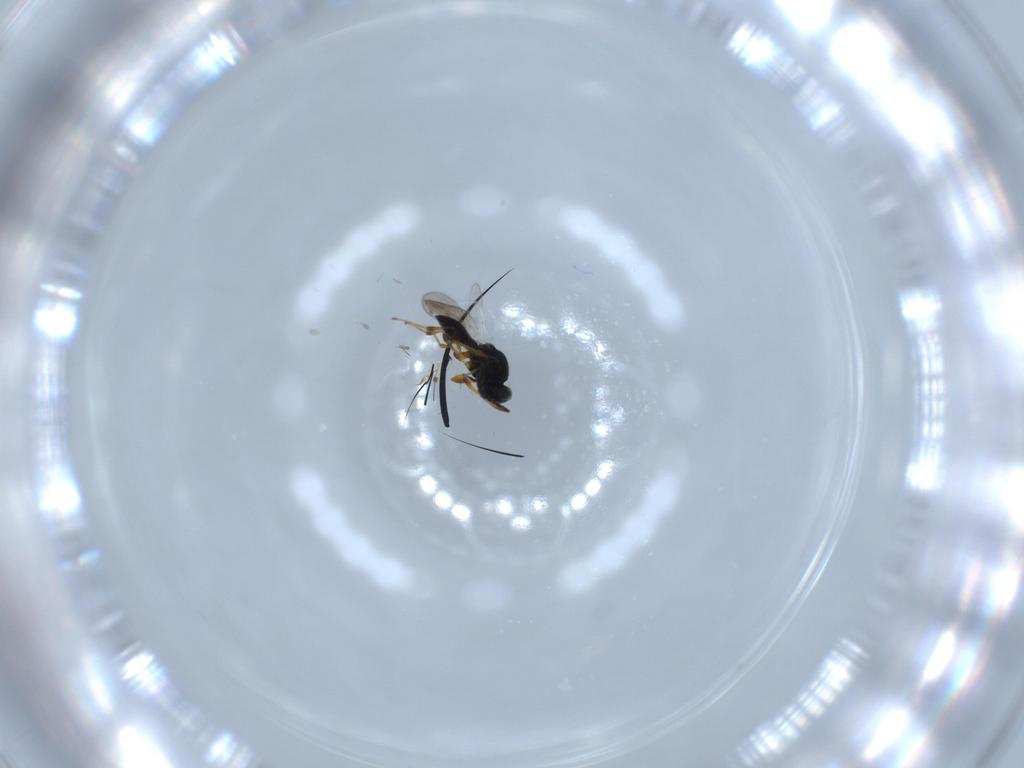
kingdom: Animalia
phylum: Arthropoda
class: Insecta
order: Hymenoptera
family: Platygastridae
